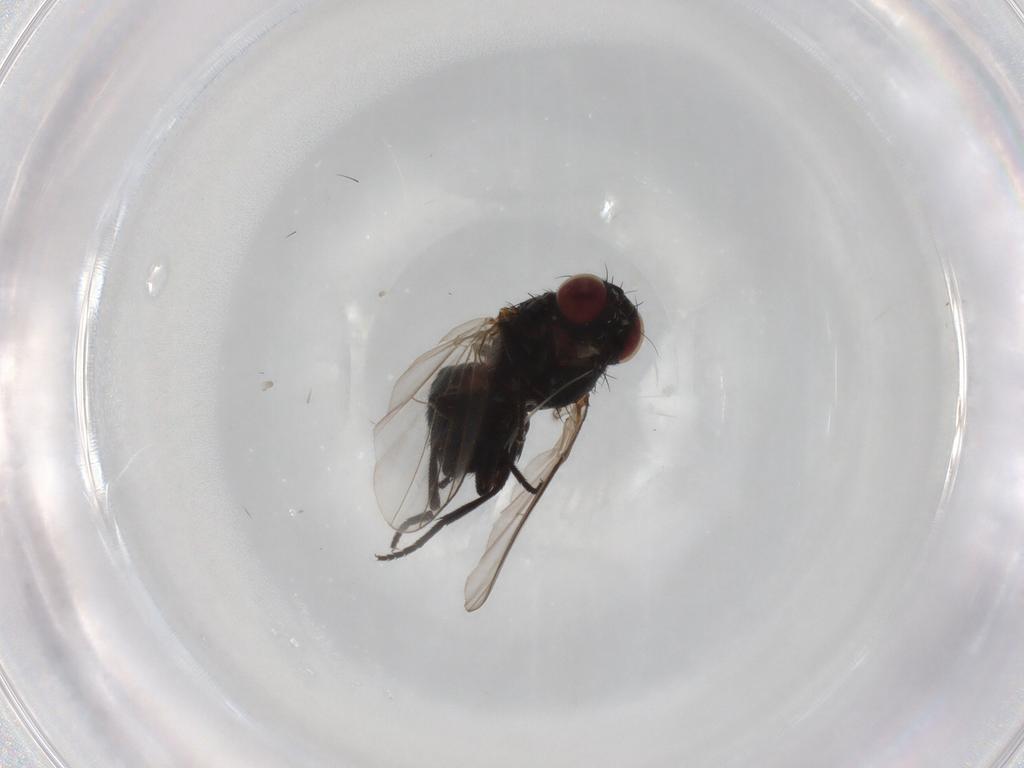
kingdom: Animalia
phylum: Arthropoda
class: Insecta
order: Diptera
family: Agromyzidae
